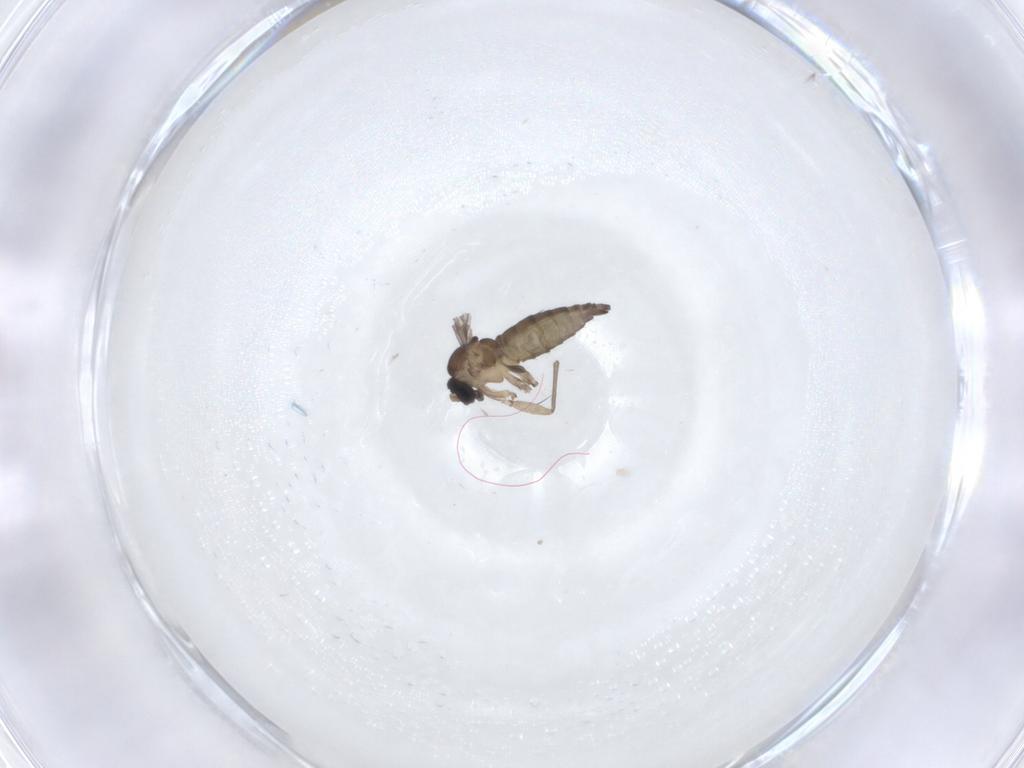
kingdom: Animalia
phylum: Arthropoda
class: Insecta
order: Diptera
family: Sciaridae
